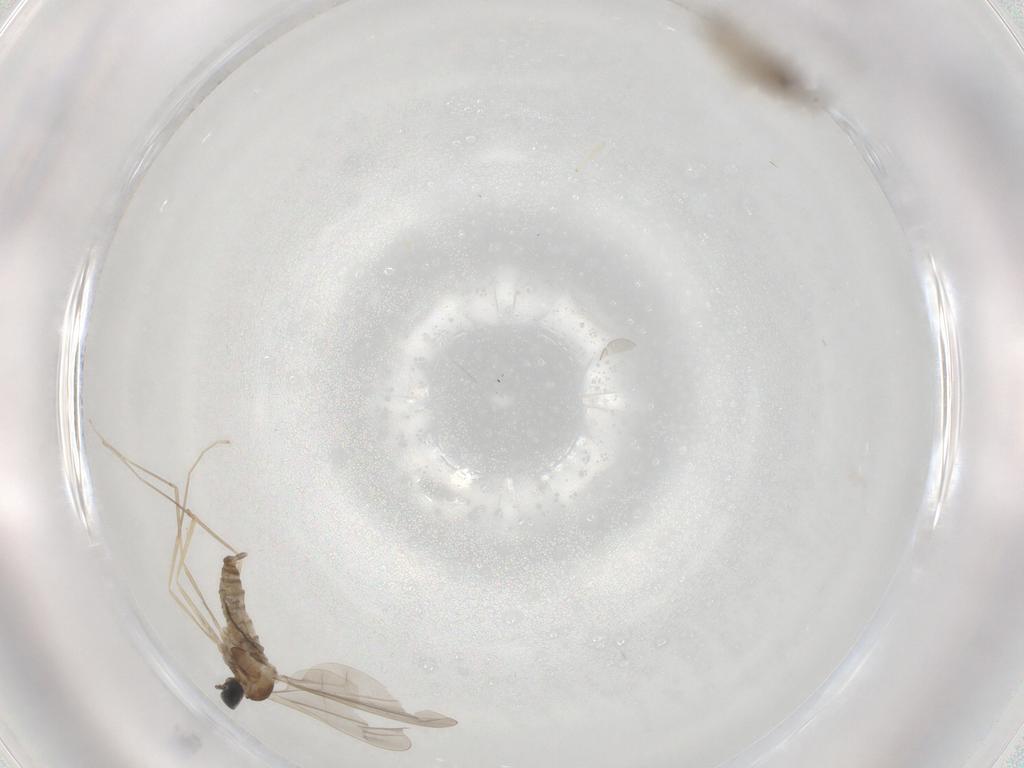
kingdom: Animalia
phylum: Arthropoda
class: Insecta
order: Diptera
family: Cecidomyiidae
